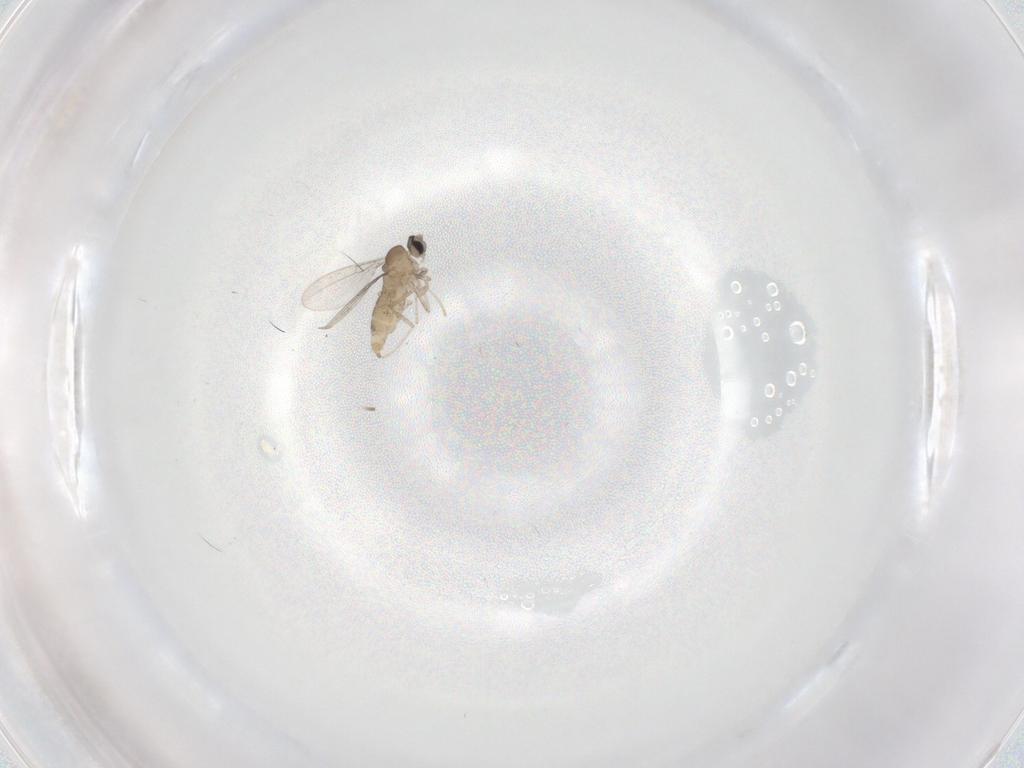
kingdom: Animalia
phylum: Arthropoda
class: Insecta
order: Diptera
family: Cecidomyiidae
